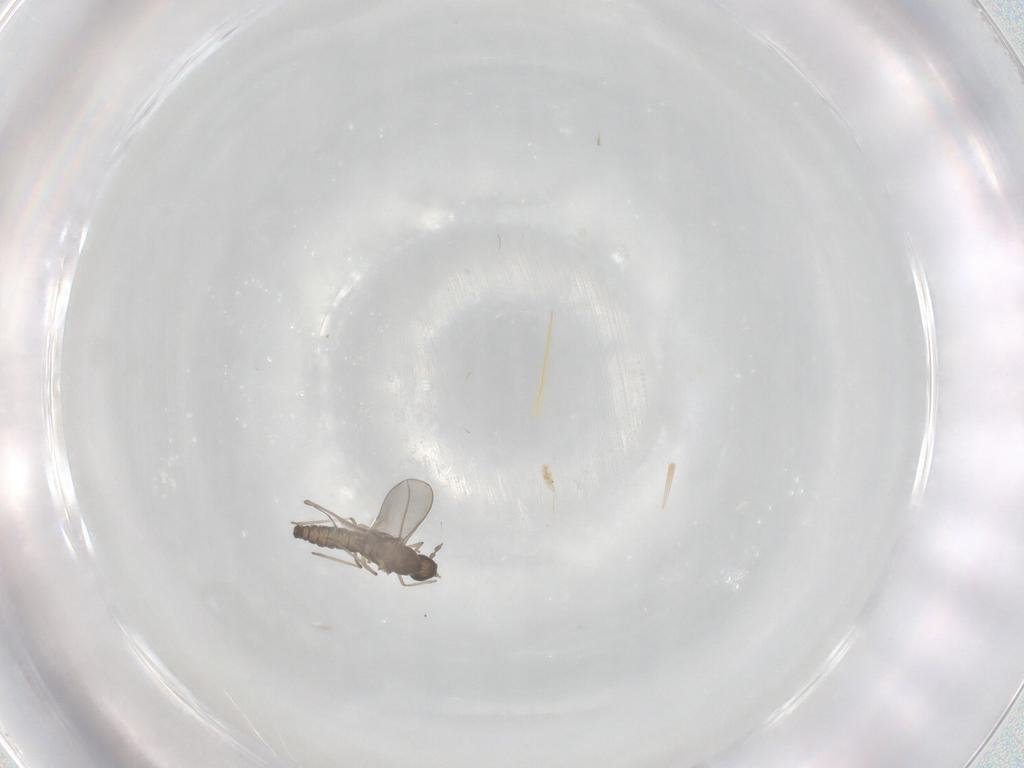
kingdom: Animalia
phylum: Arthropoda
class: Insecta
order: Diptera
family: Cecidomyiidae
